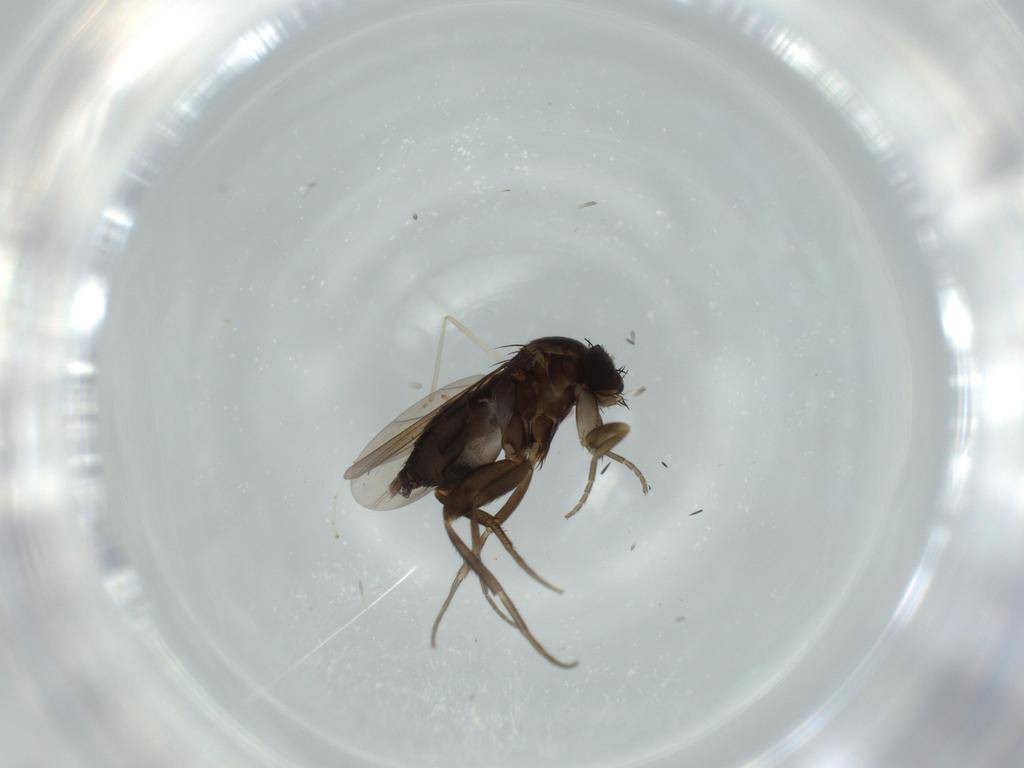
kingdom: Animalia
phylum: Arthropoda
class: Insecta
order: Diptera
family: Phoridae
